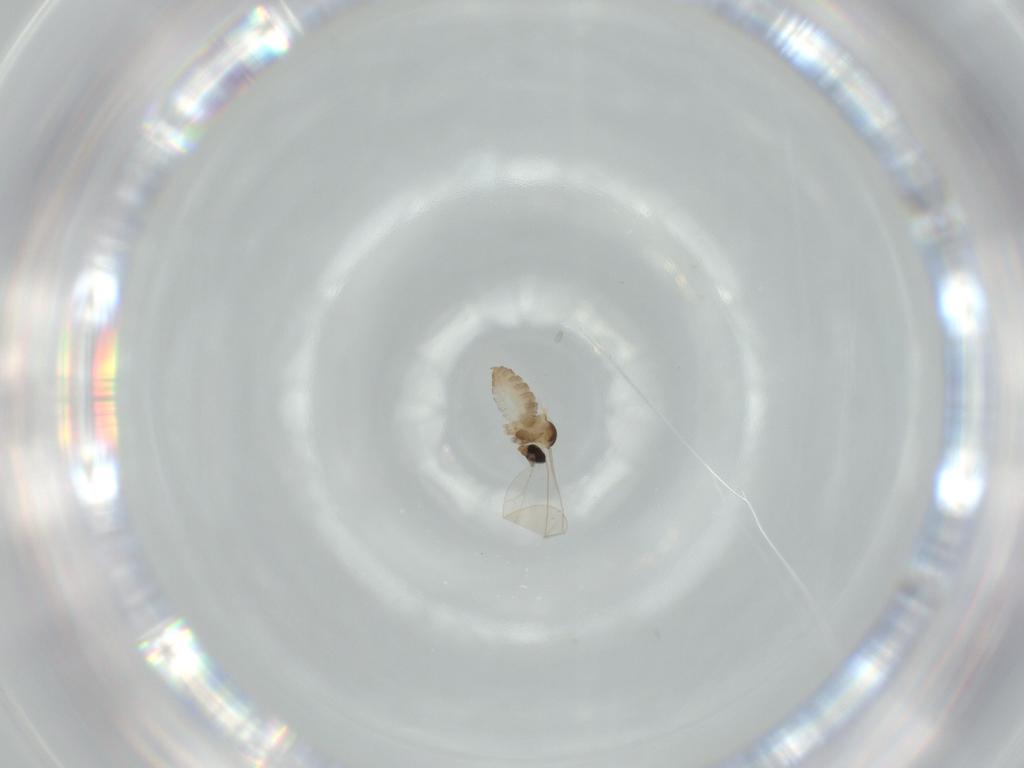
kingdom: Animalia
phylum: Arthropoda
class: Insecta
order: Diptera
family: Cecidomyiidae
